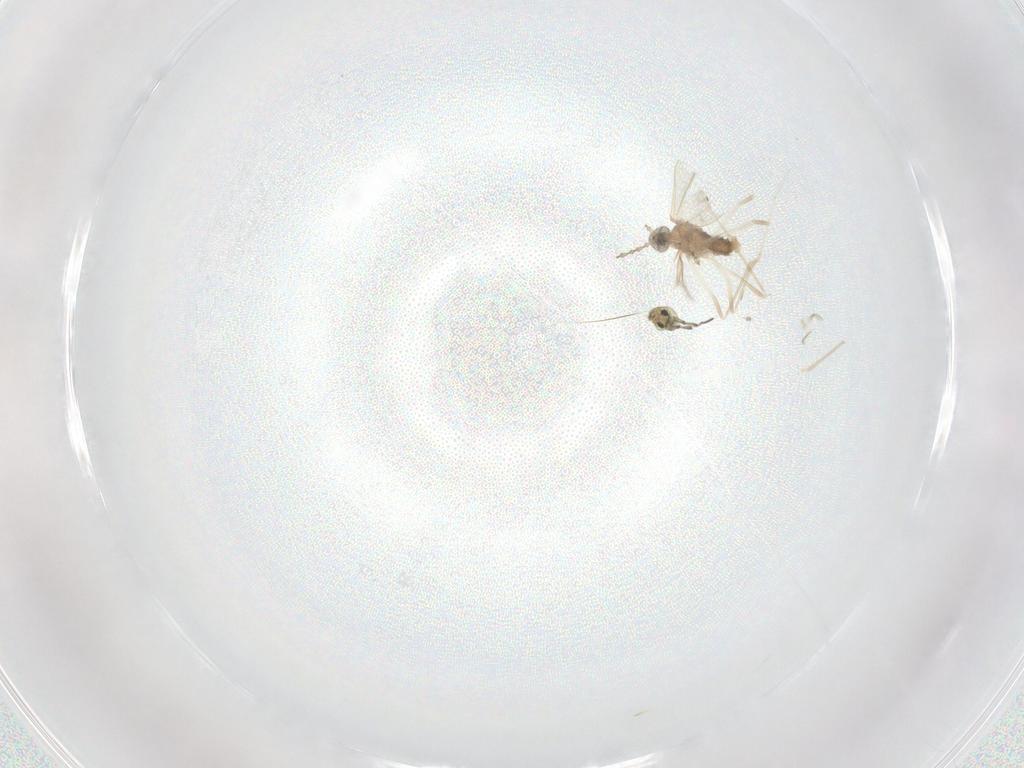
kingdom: Animalia
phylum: Arthropoda
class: Insecta
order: Diptera
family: Cecidomyiidae
